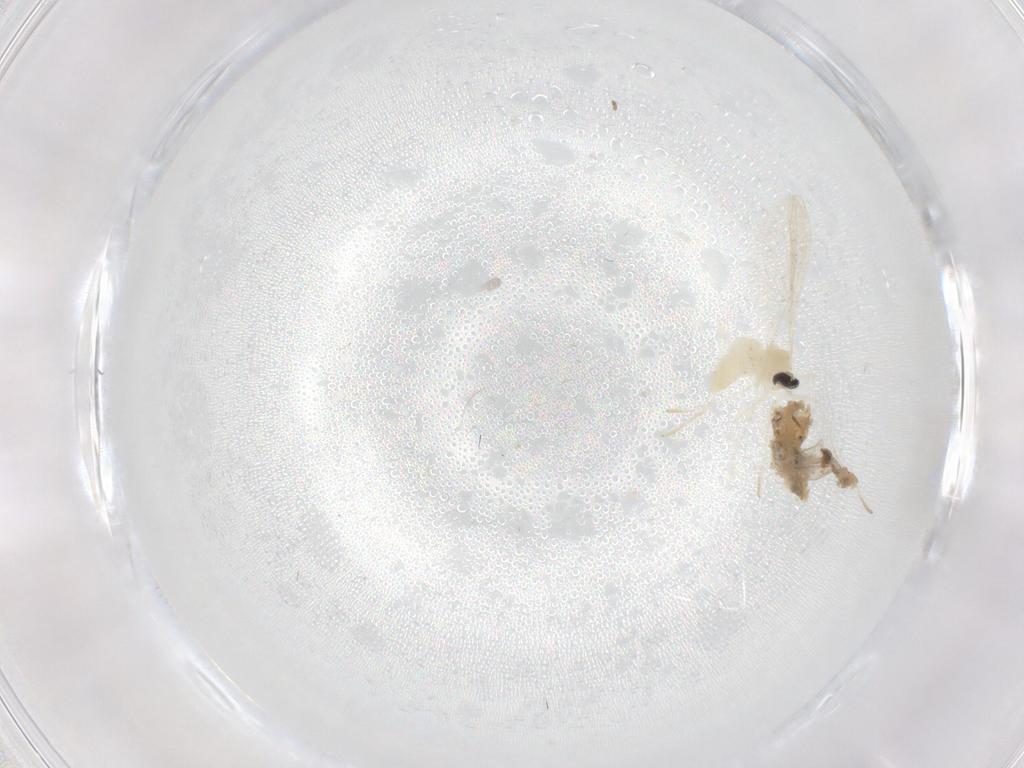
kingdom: Animalia
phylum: Arthropoda
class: Insecta
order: Diptera
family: Cecidomyiidae
